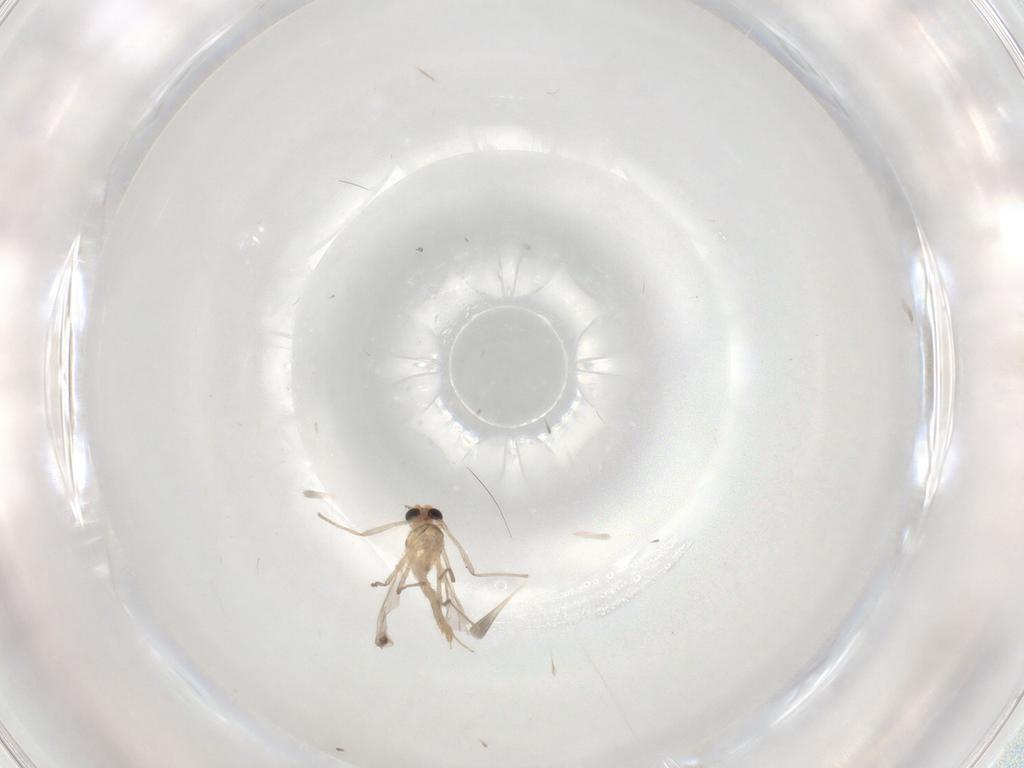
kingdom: Animalia
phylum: Arthropoda
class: Insecta
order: Diptera
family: Cecidomyiidae
